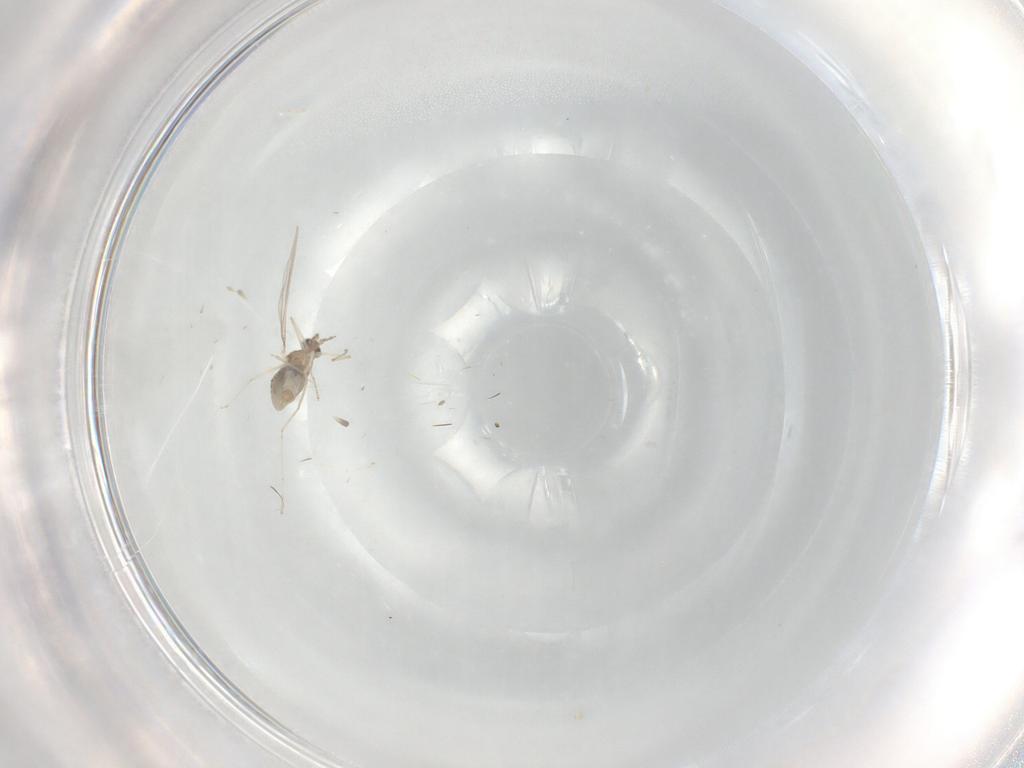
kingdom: Animalia
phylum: Arthropoda
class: Insecta
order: Diptera
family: Cecidomyiidae
